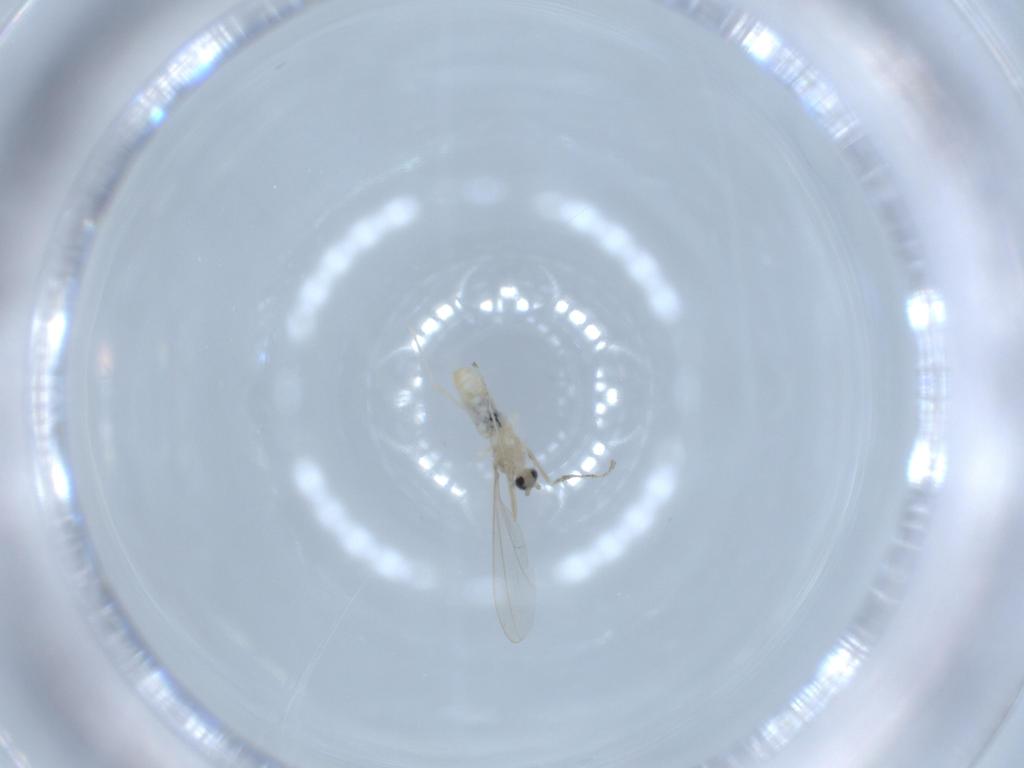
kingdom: Animalia
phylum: Arthropoda
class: Insecta
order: Diptera
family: Cecidomyiidae
